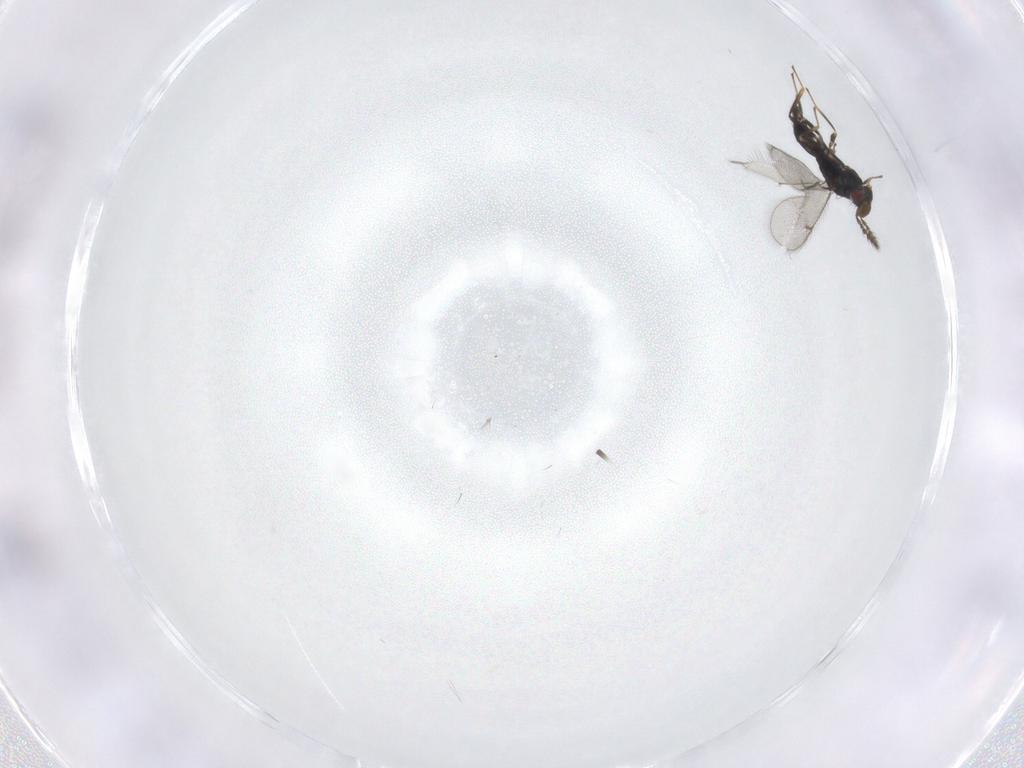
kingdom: Animalia
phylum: Arthropoda
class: Insecta
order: Hymenoptera
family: Eulophidae
